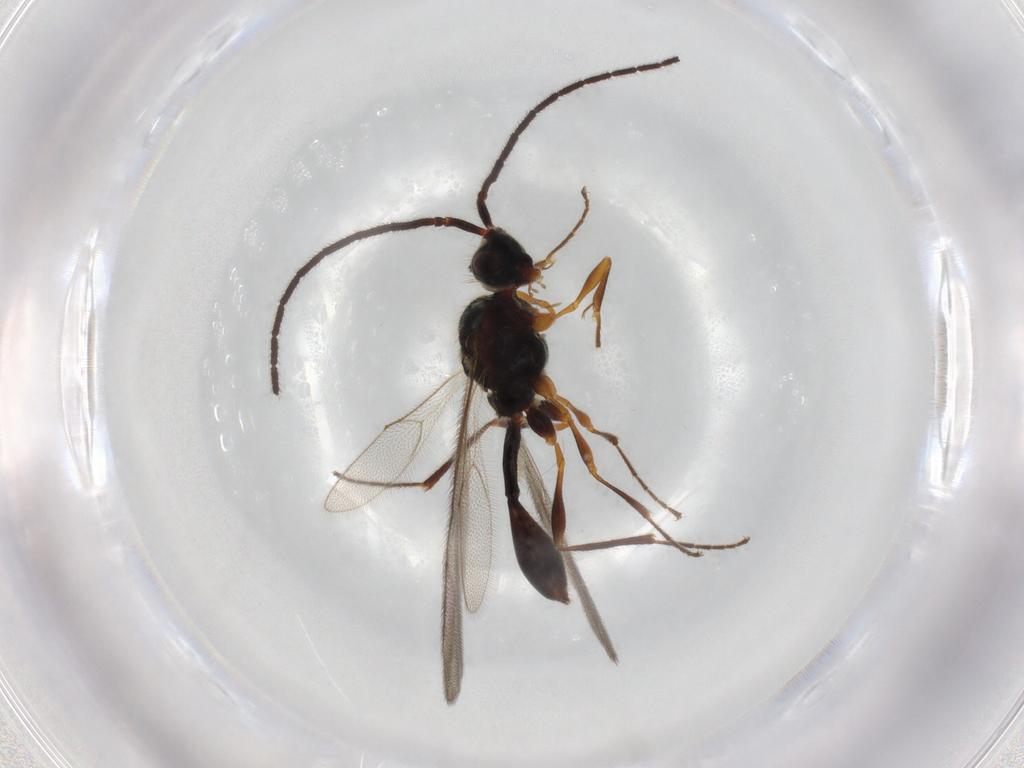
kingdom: Animalia
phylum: Arthropoda
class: Insecta
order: Hymenoptera
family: Diapriidae
